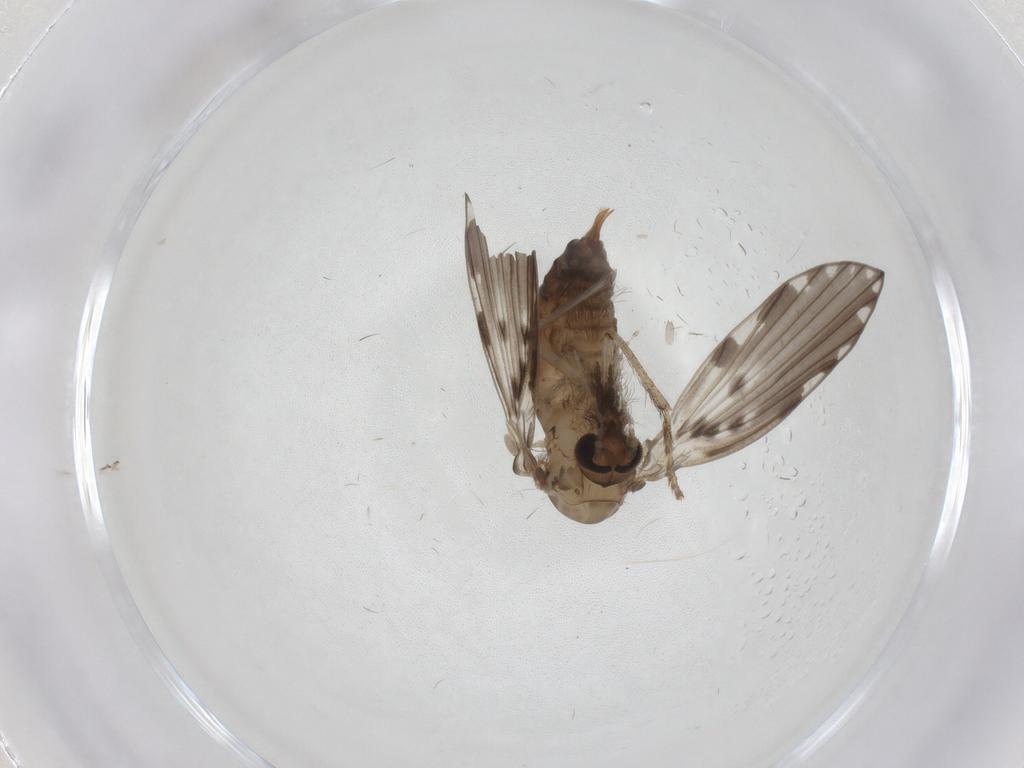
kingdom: Animalia
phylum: Arthropoda
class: Insecta
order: Diptera
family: Psychodidae
